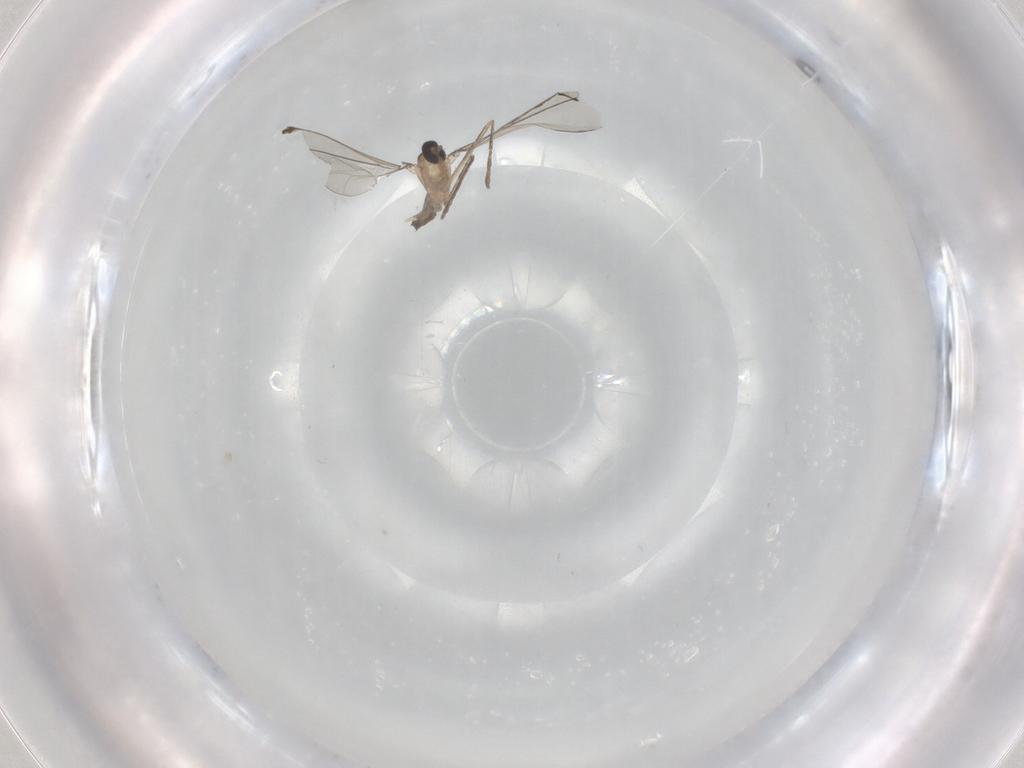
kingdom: Animalia
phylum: Arthropoda
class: Insecta
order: Diptera
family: Cecidomyiidae
